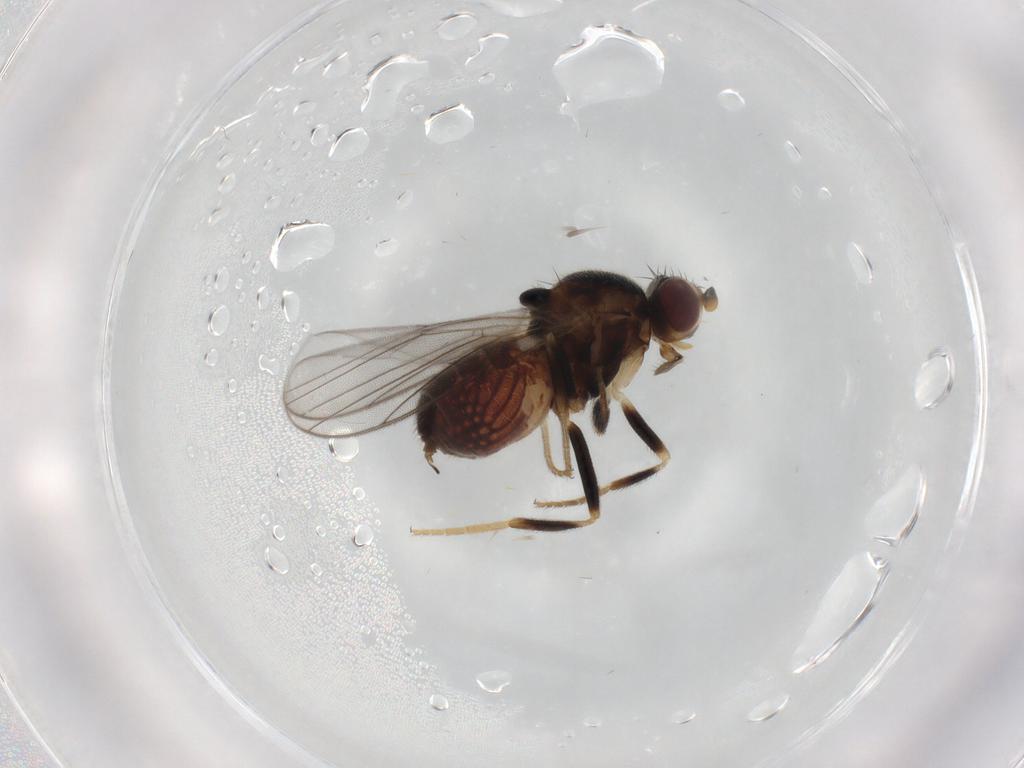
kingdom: Animalia
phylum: Arthropoda
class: Insecta
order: Diptera
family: Chloropidae
